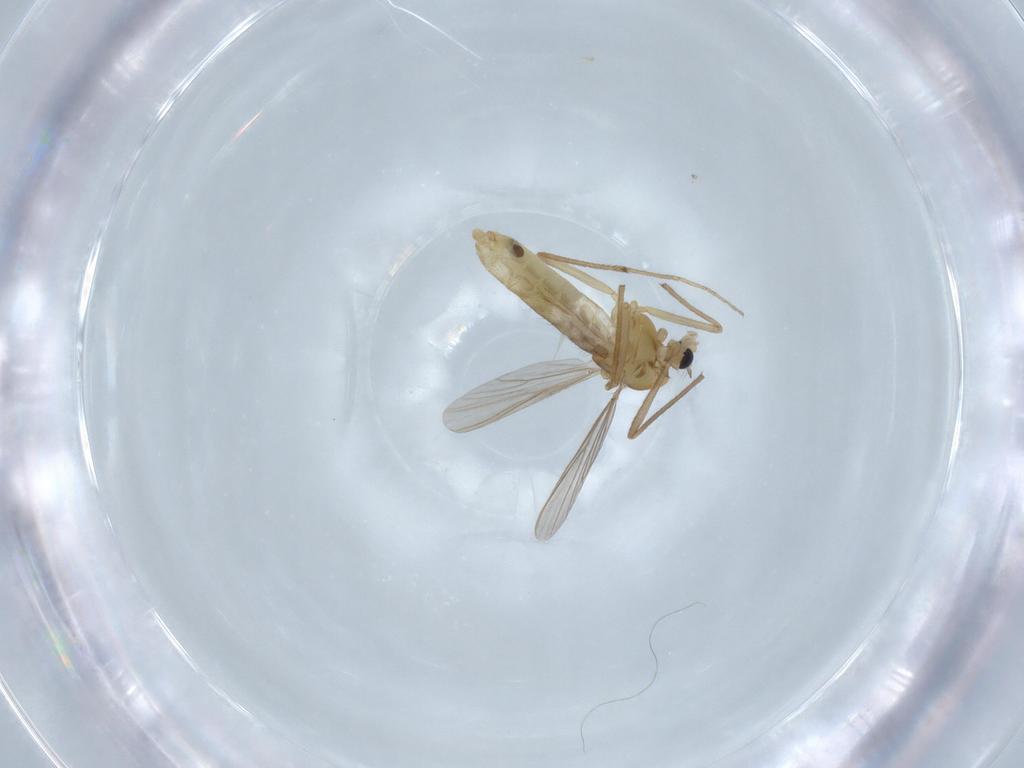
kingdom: Animalia
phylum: Arthropoda
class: Insecta
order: Diptera
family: Chironomidae
